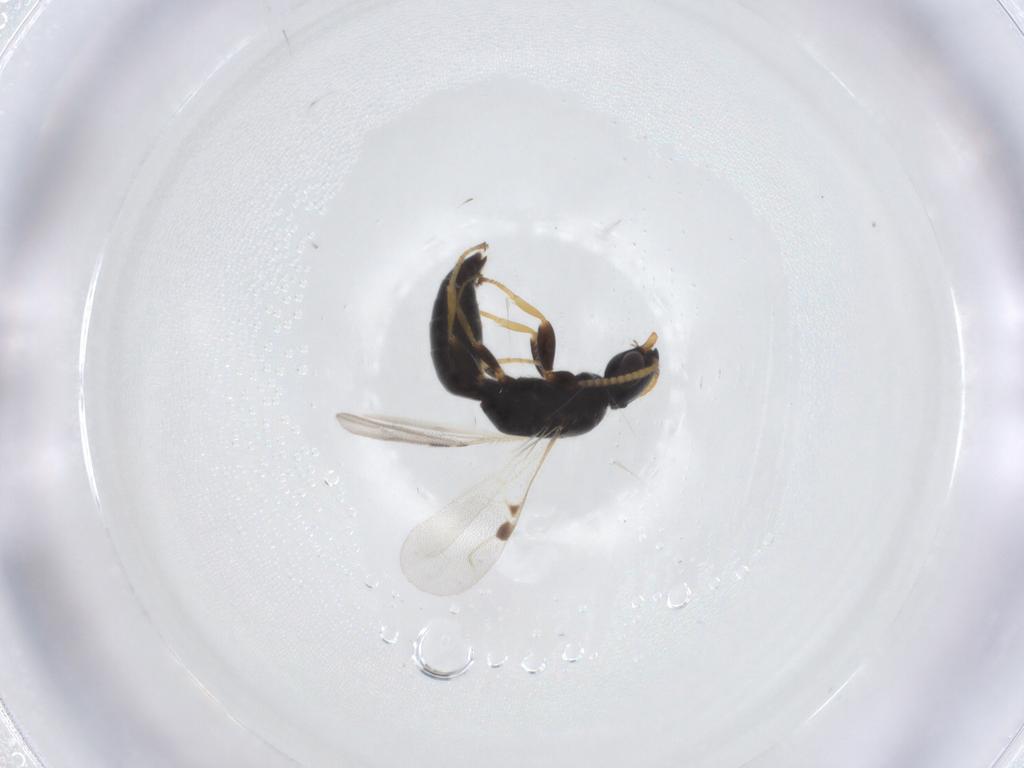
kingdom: Animalia
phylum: Arthropoda
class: Insecta
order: Hymenoptera
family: Bethylidae
